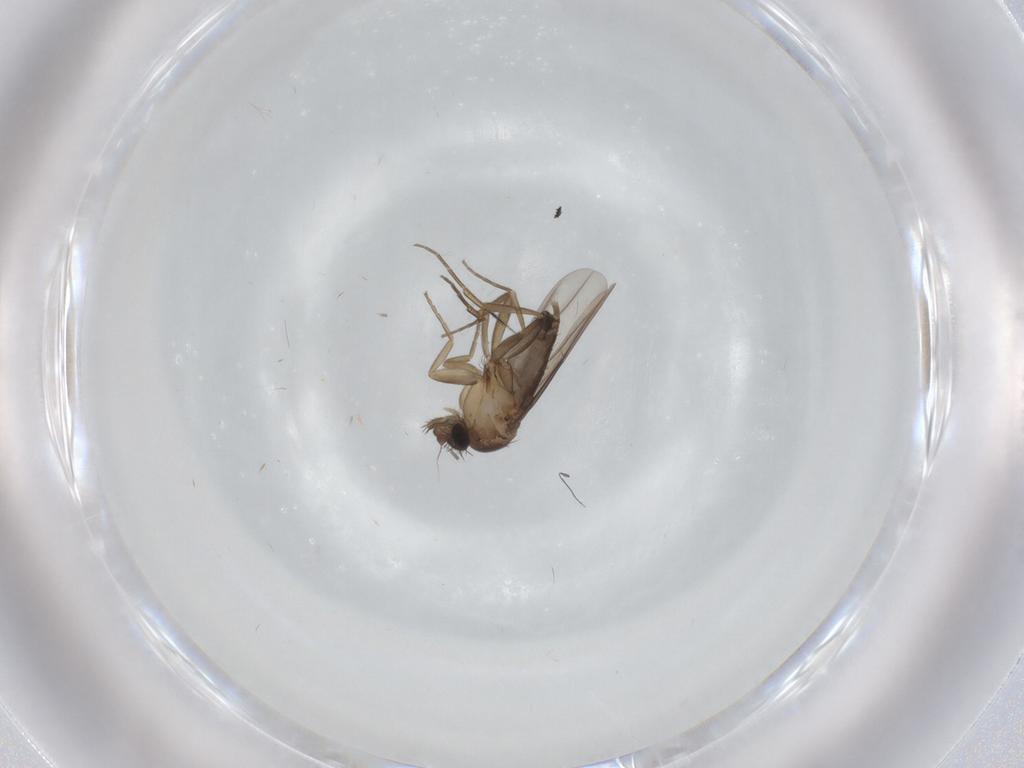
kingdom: Animalia
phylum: Arthropoda
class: Insecta
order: Diptera
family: Phoridae
